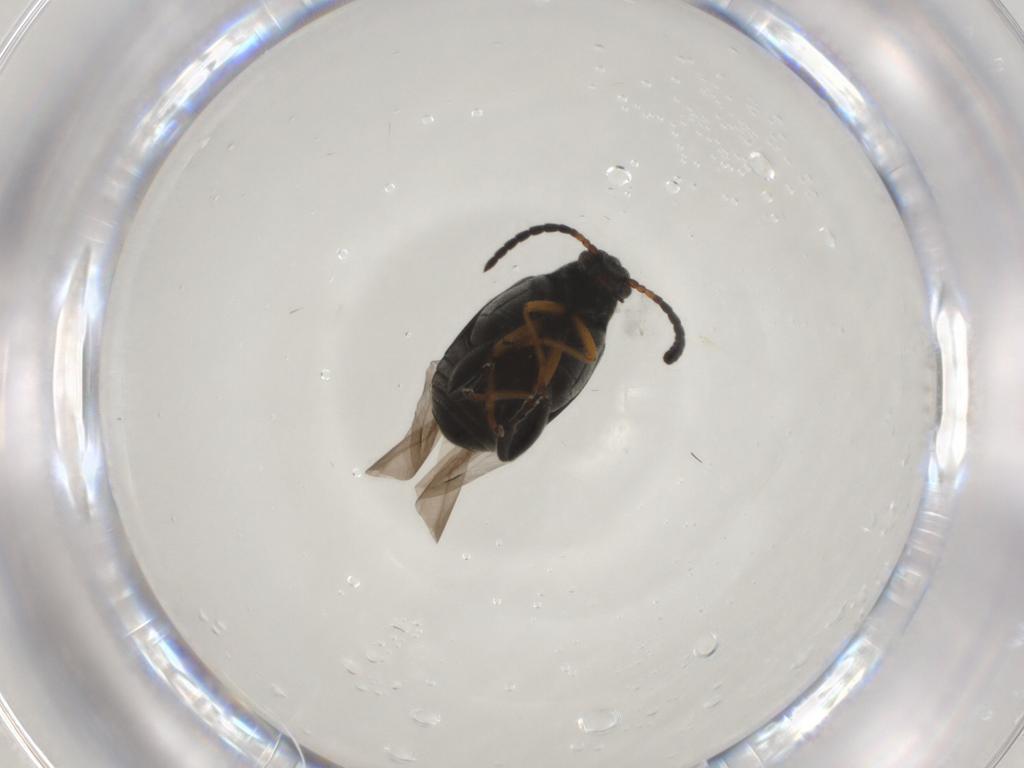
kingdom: Animalia
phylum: Arthropoda
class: Insecta
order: Coleoptera
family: Chrysomelidae
